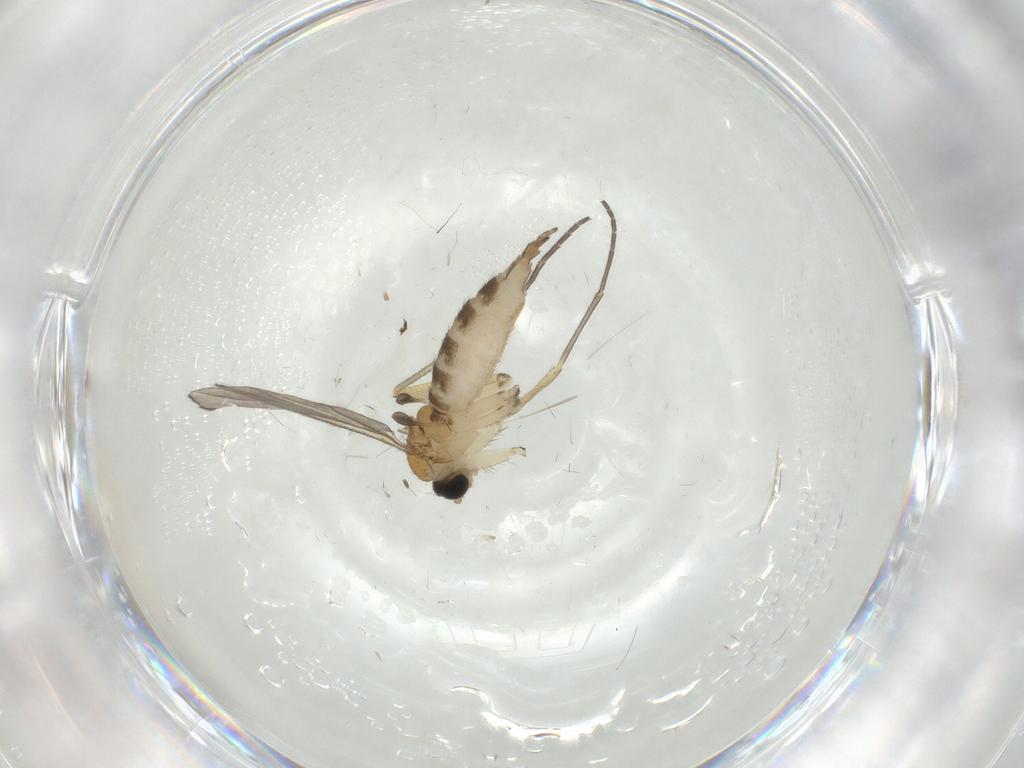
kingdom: Animalia
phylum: Arthropoda
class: Insecta
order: Diptera
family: Sciaridae
